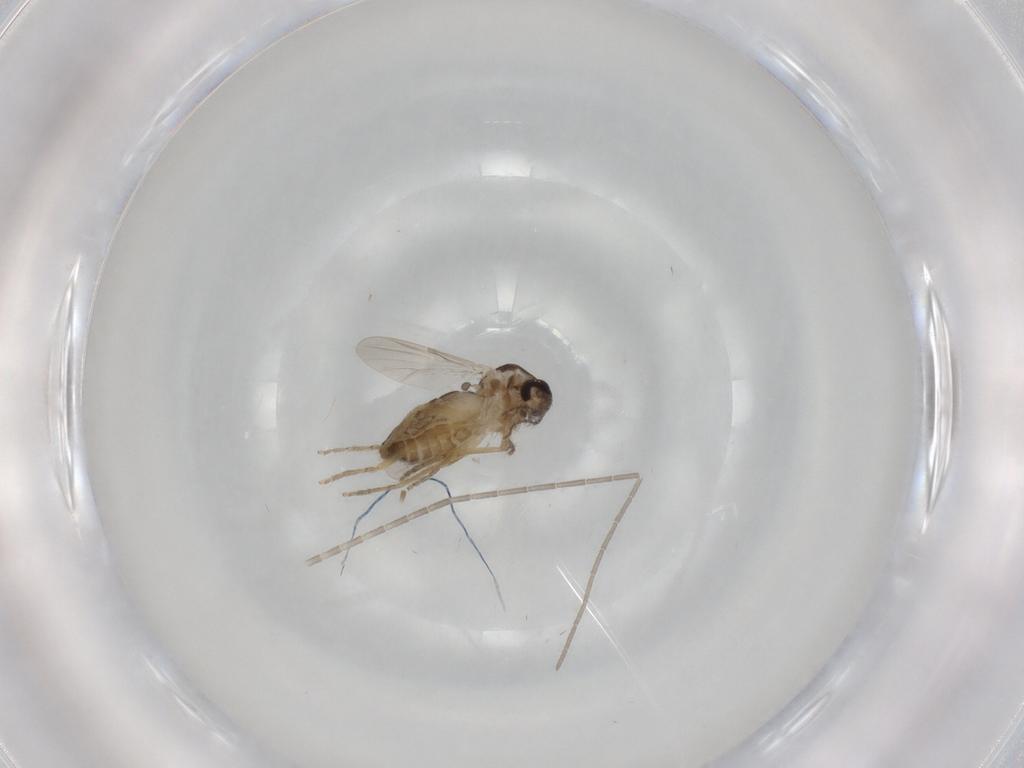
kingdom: Animalia
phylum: Arthropoda
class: Insecta
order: Diptera
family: Ceratopogonidae
